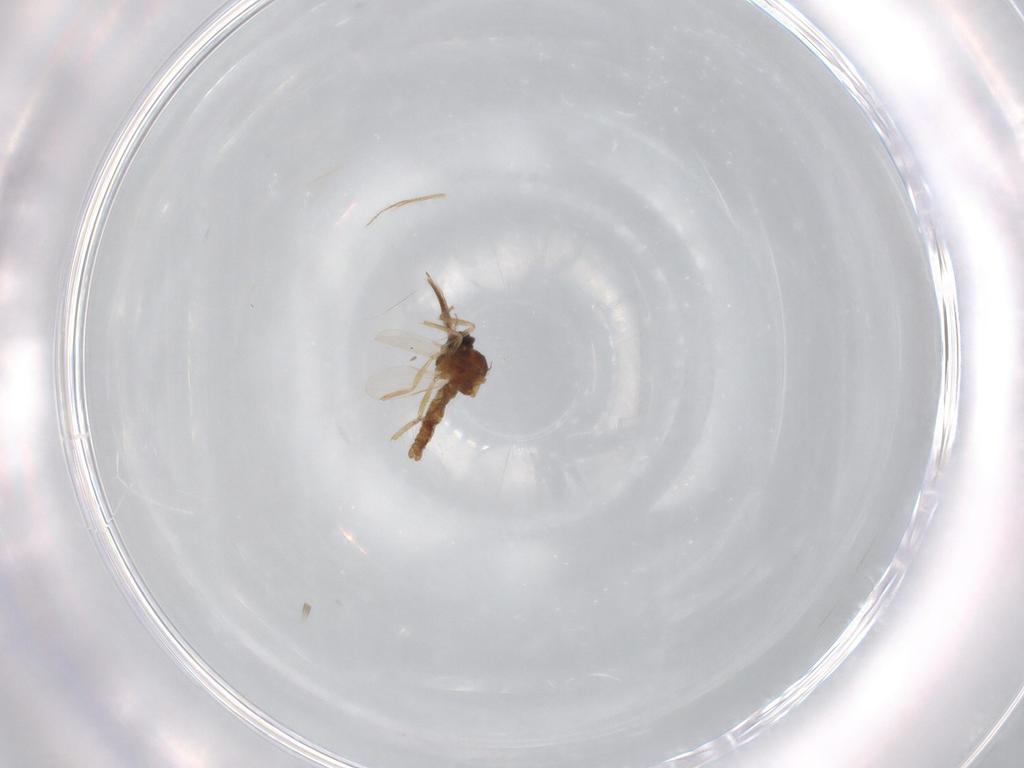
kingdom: Animalia
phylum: Arthropoda
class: Insecta
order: Diptera
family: Ceratopogonidae
